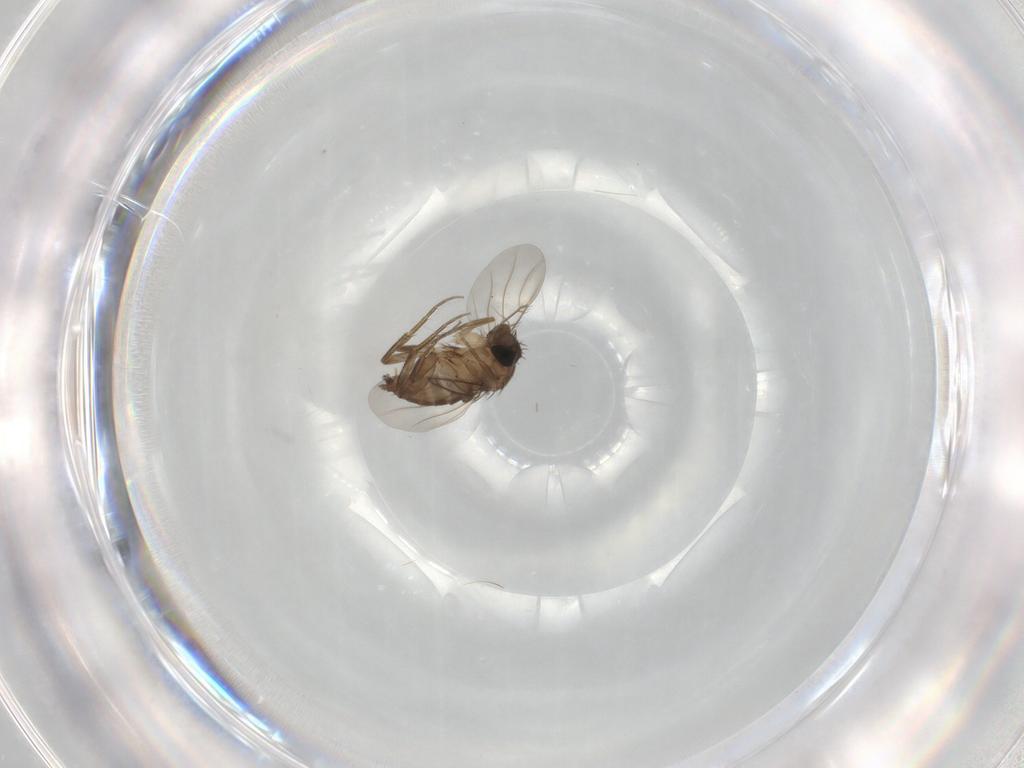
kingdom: Animalia
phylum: Arthropoda
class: Insecta
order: Diptera
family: Phoridae
